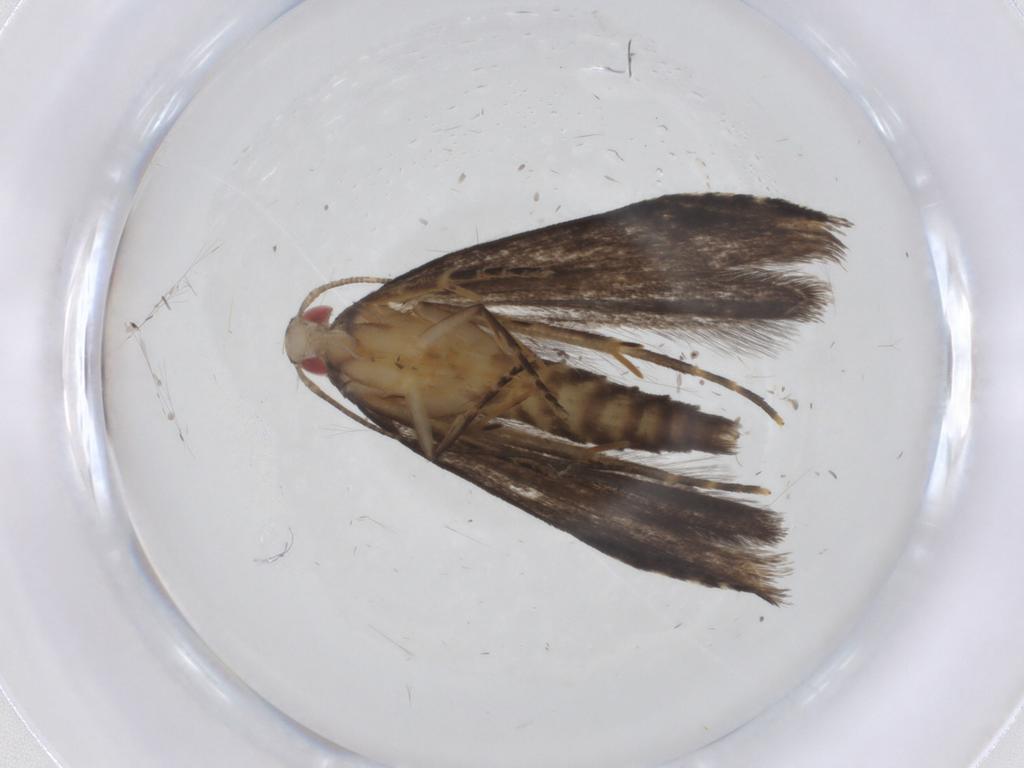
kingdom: Animalia
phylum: Arthropoda
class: Insecta
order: Lepidoptera
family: Gelechiidae
